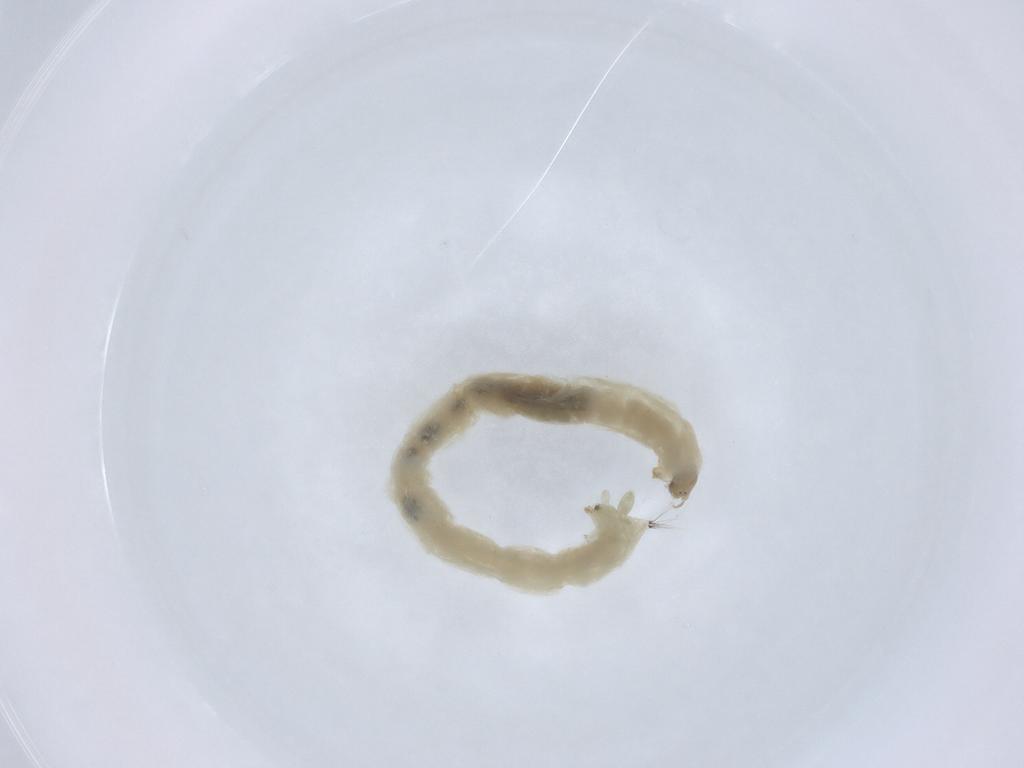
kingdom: Animalia
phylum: Arthropoda
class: Insecta
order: Diptera
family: Chironomidae
